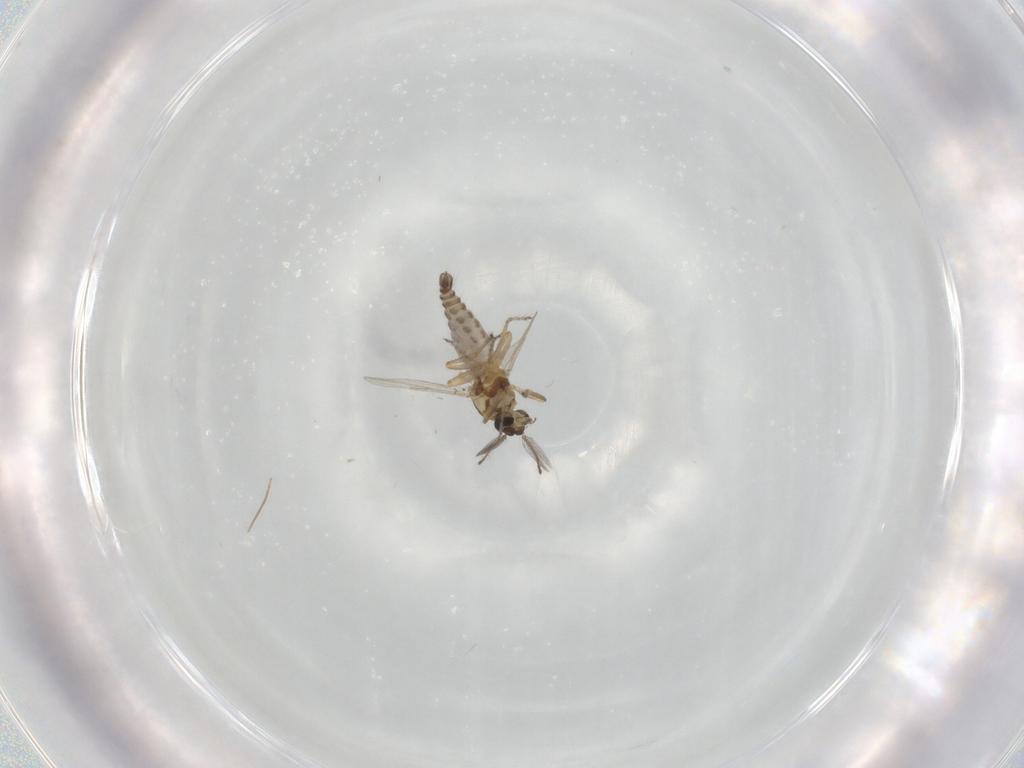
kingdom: Animalia
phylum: Arthropoda
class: Insecta
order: Diptera
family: Ceratopogonidae
